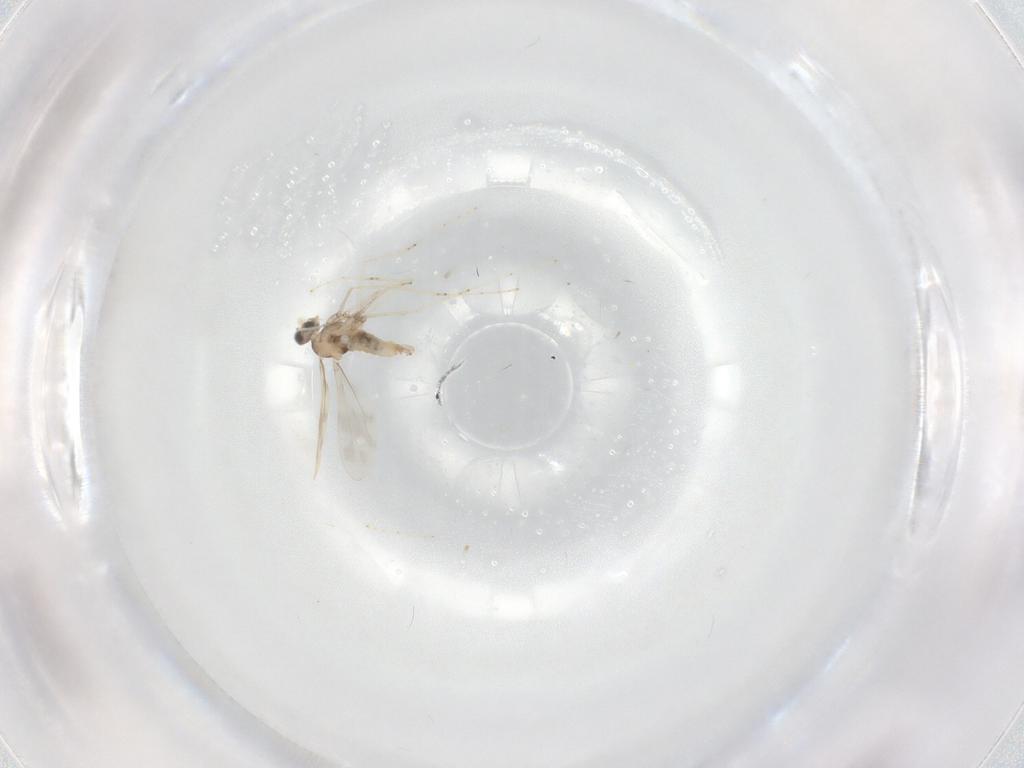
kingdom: Animalia
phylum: Arthropoda
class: Insecta
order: Diptera
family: Cecidomyiidae
